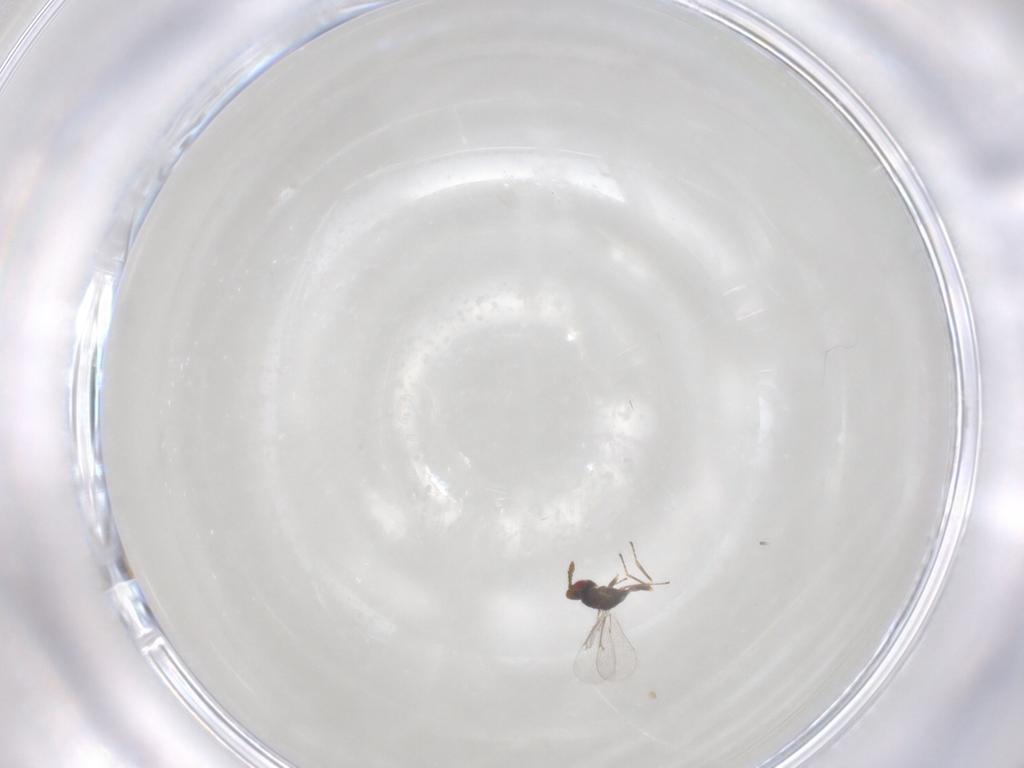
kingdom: Animalia
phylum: Arthropoda
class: Insecta
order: Hymenoptera
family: Eulophidae
